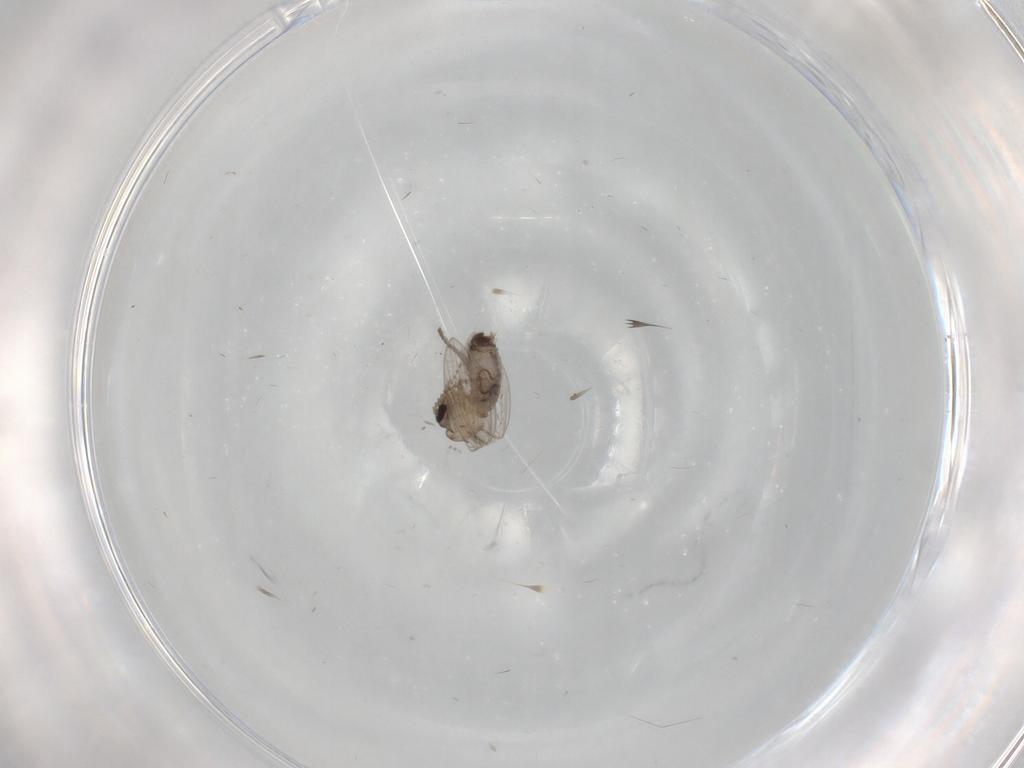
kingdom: Animalia
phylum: Arthropoda
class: Insecta
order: Diptera
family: Psychodidae
